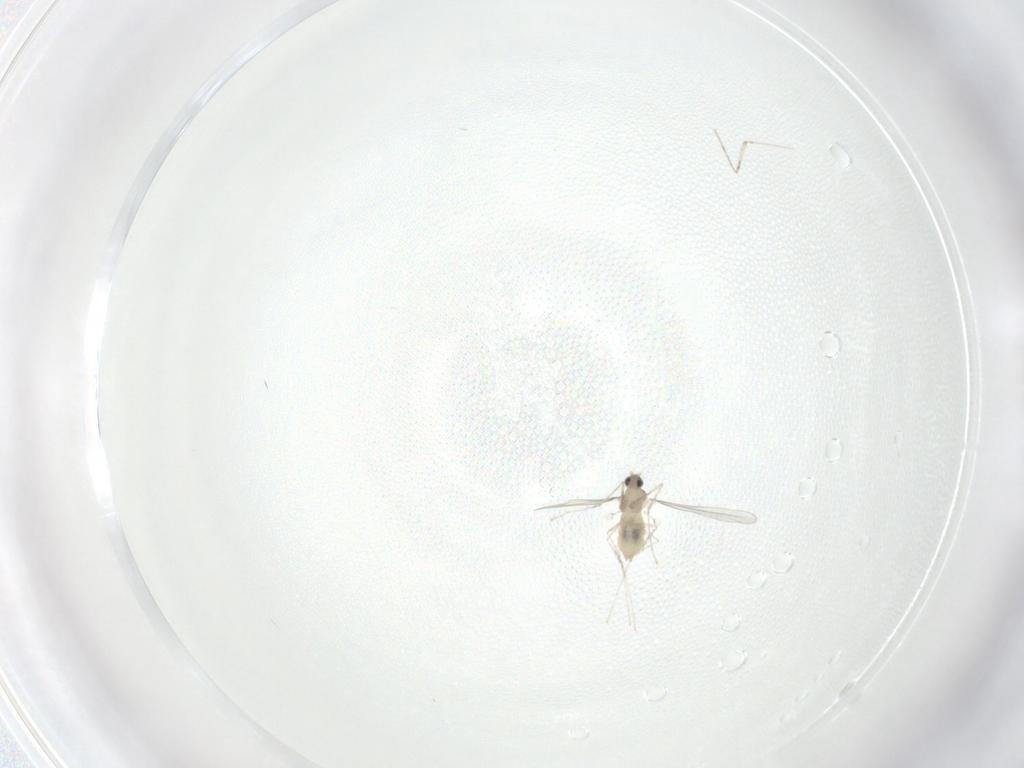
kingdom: Animalia
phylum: Arthropoda
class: Insecta
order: Diptera
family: Cecidomyiidae
